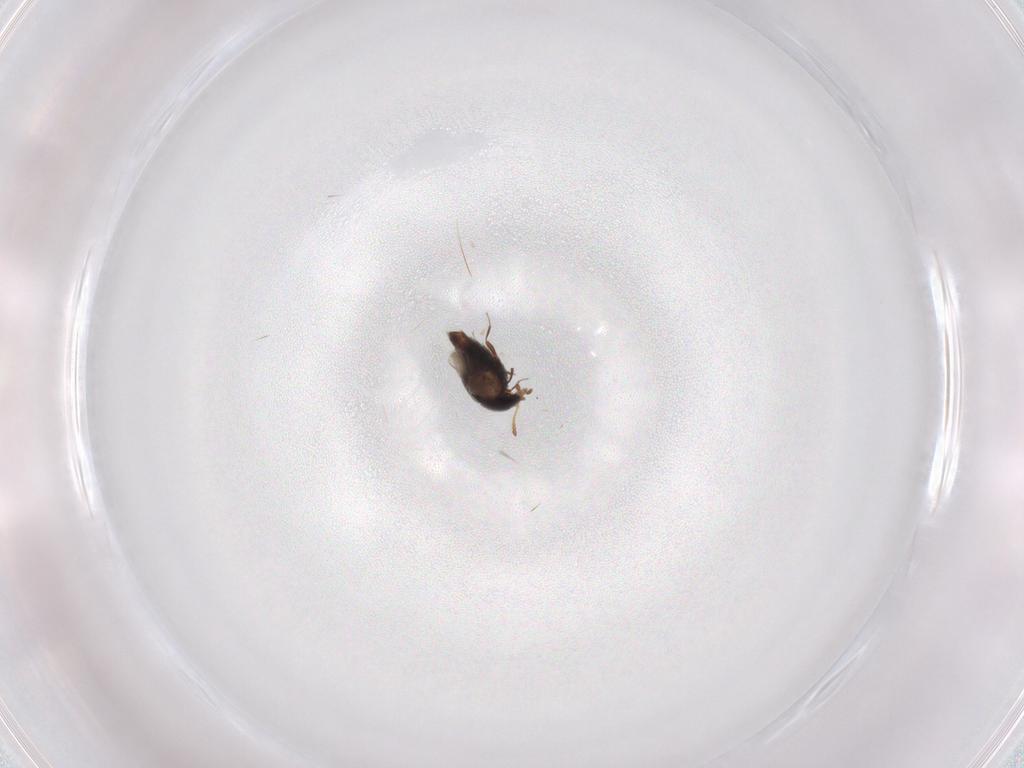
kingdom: Animalia
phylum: Arthropoda
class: Insecta
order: Coleoptera
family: Staphylinidae
